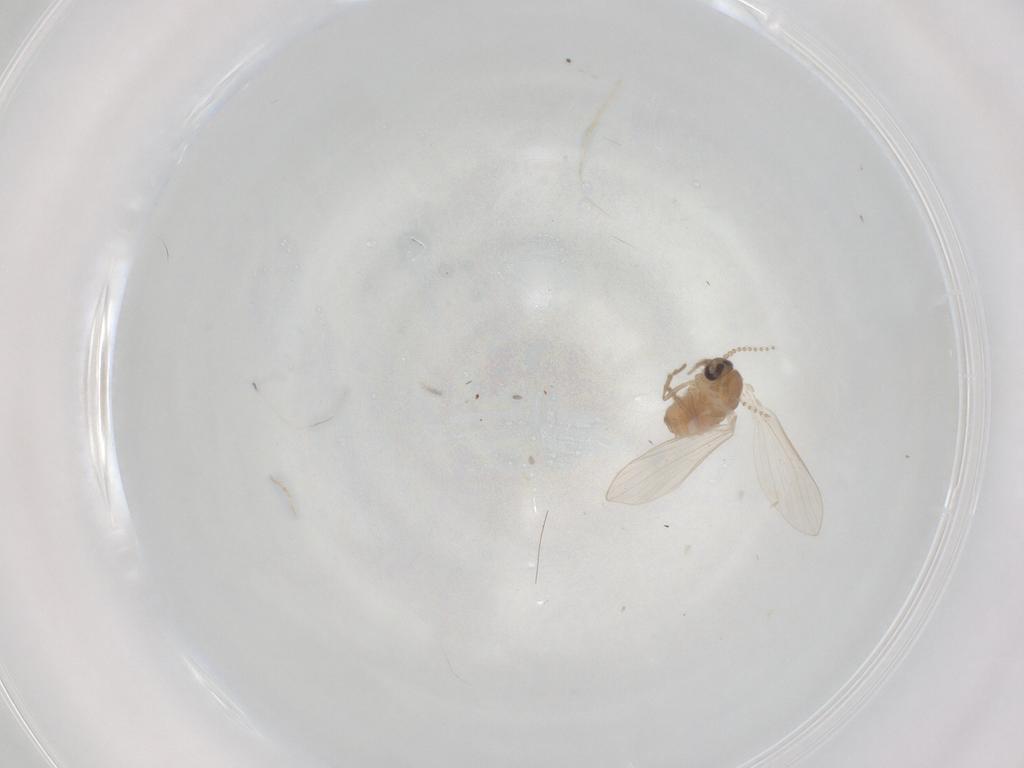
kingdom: Animalia
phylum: Arthropoda
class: Insecta
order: Diptera
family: Psychodidae
